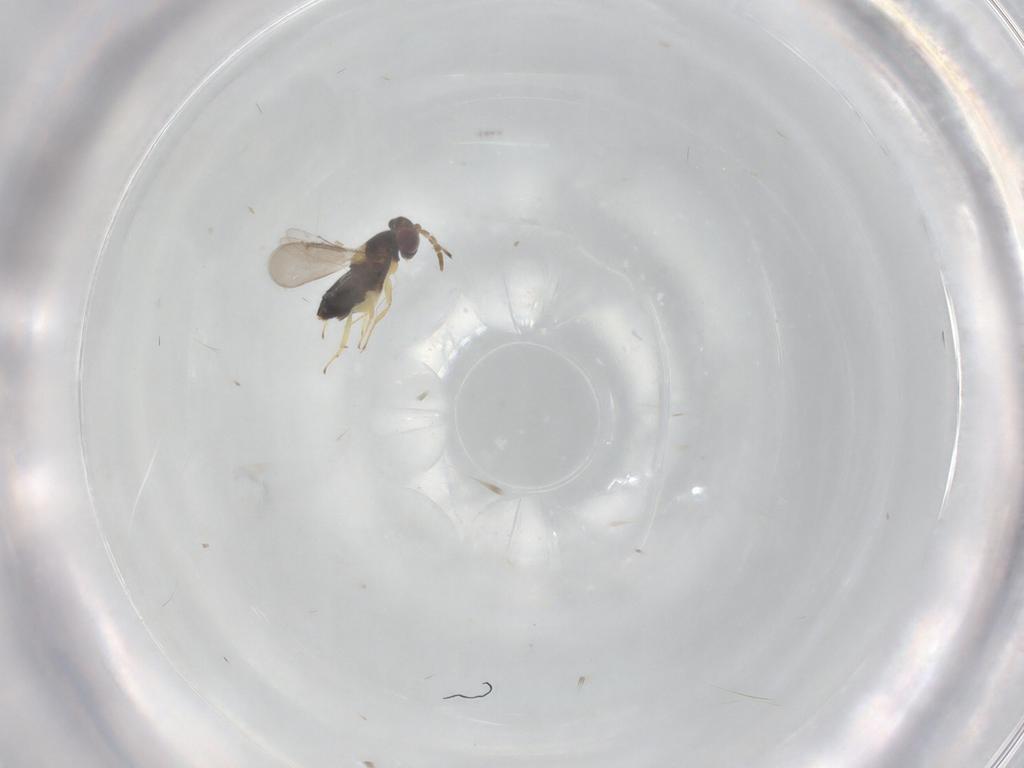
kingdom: Animalia
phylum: Arthropoda
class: Insecta
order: Hymenoptera
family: Aphelinidae
